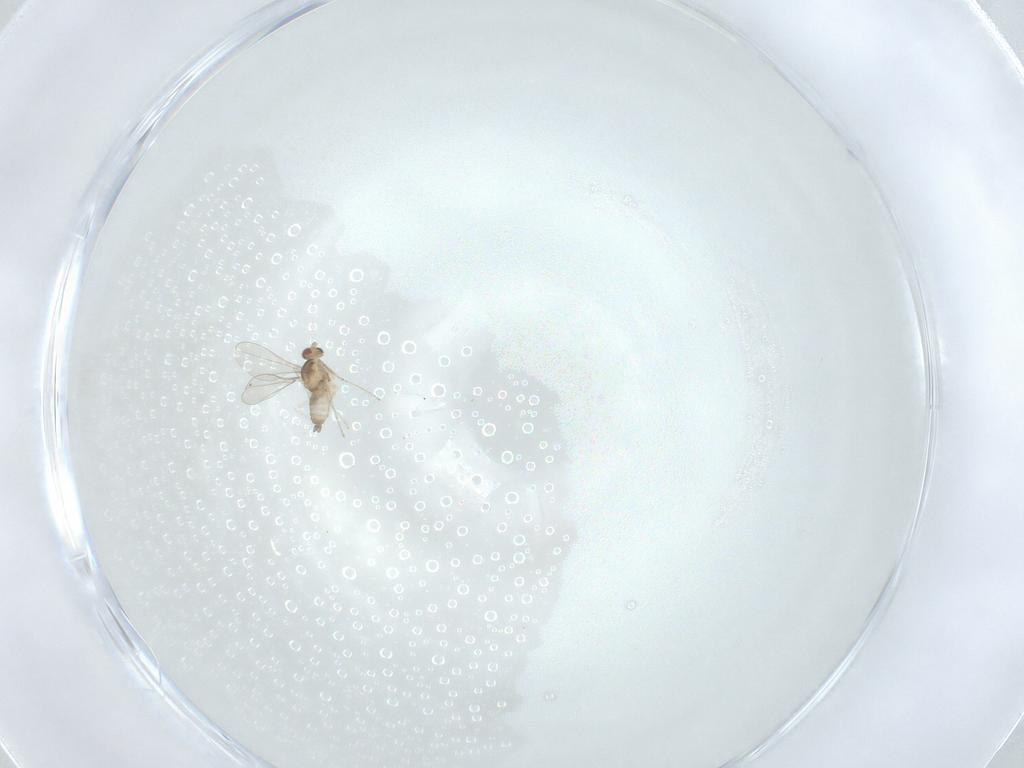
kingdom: Animalia
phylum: Arthropoda
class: Insecta
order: Diptera
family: Cecidomyiidae
